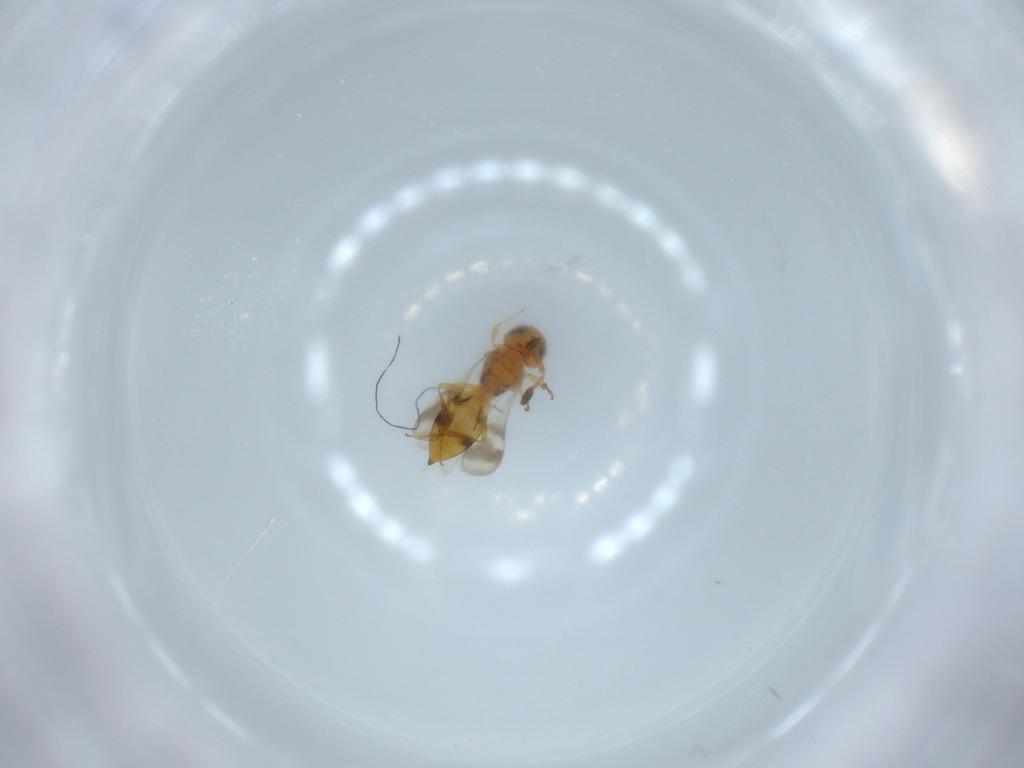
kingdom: Animalia
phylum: Arthropoda
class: Insecta
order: Hymenoptera
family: Scelionidae
